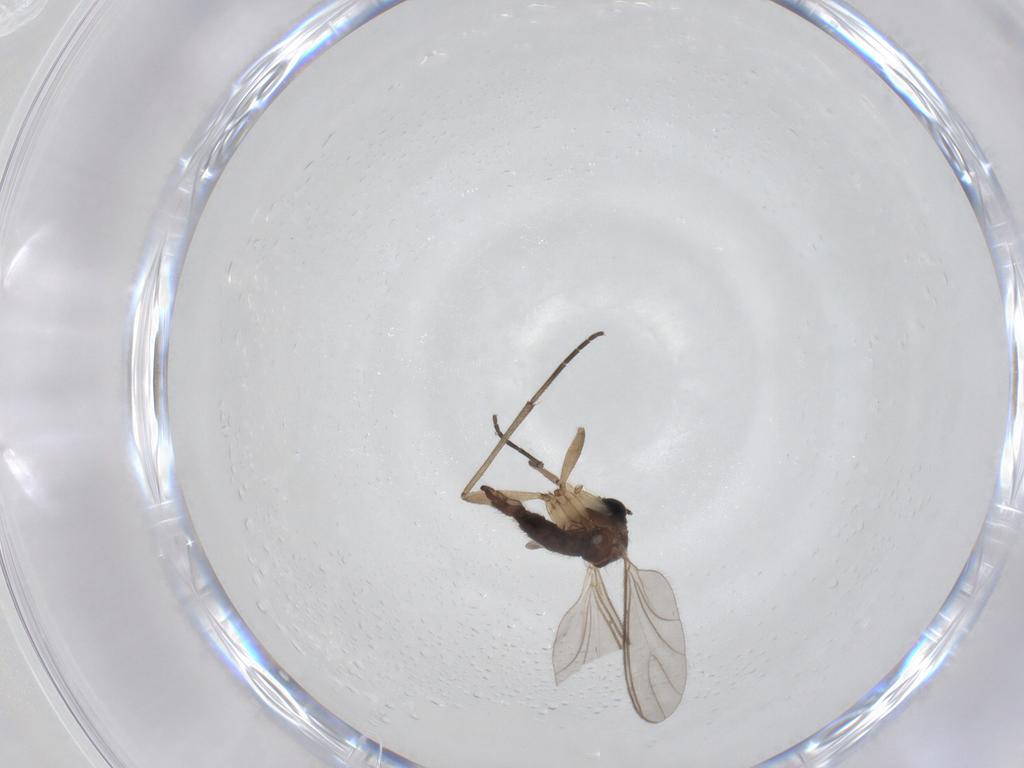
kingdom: Animalia
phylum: Arthropoda
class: Insecta
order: Diptera
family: Sciaridae
